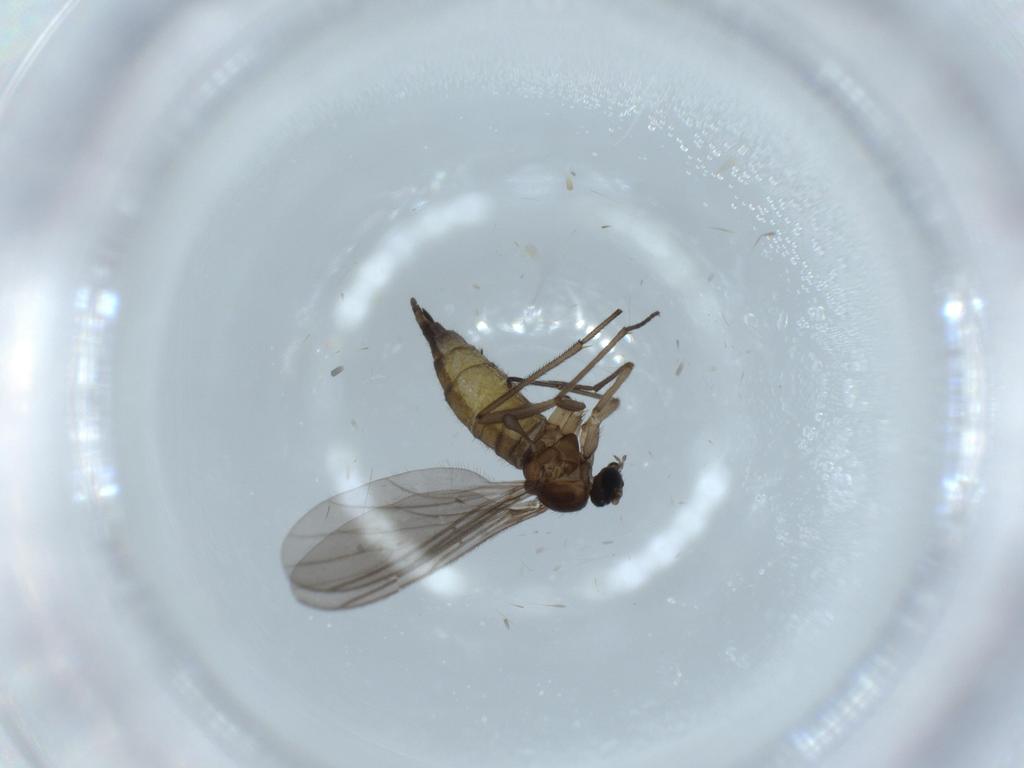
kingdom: Animalia
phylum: Arthropoda
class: Insecta
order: Diptera
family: Sciaridae
